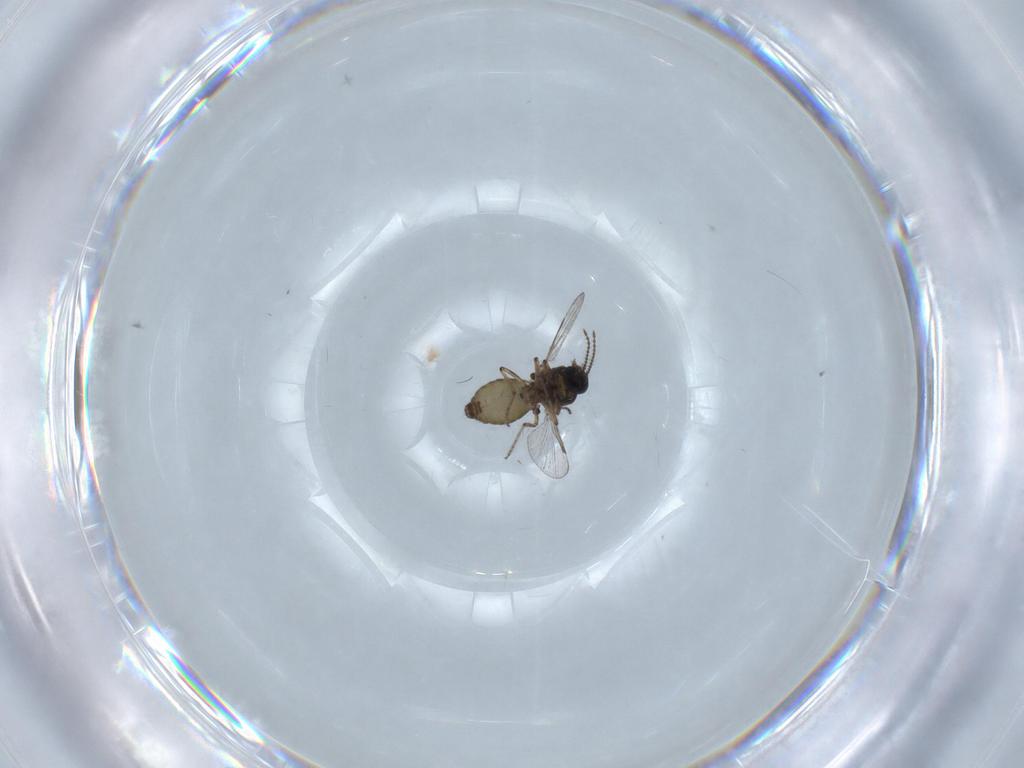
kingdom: Animalia
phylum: Arthropoda
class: Insecta
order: Diptera
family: Ceratopogonidae
